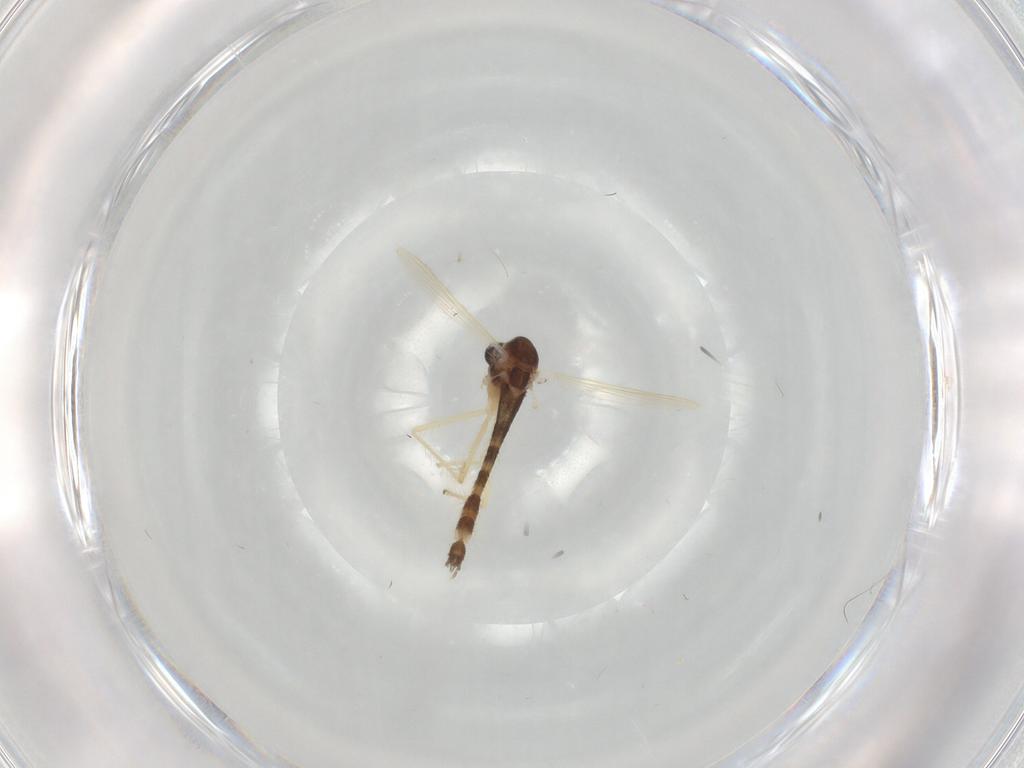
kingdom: Animalia
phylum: Arthropoda
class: Insecta
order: Diptera
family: Chironomidae
